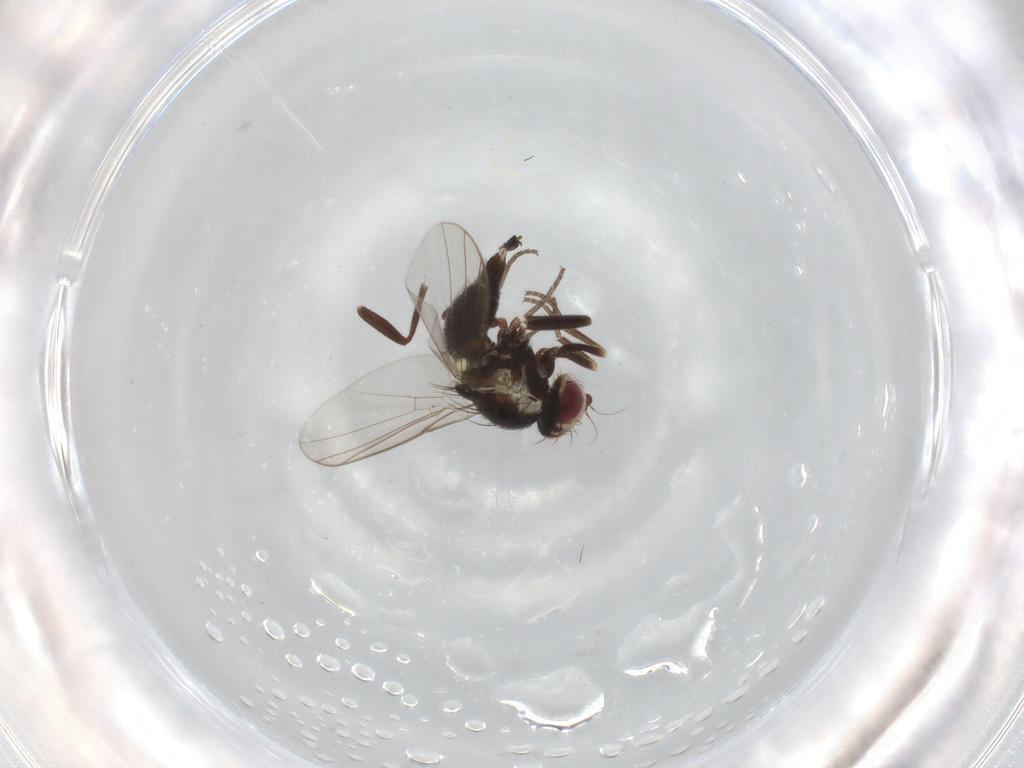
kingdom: Animalia
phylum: Arthropoda
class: Insecta
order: Diptera
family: Agromyzidae
